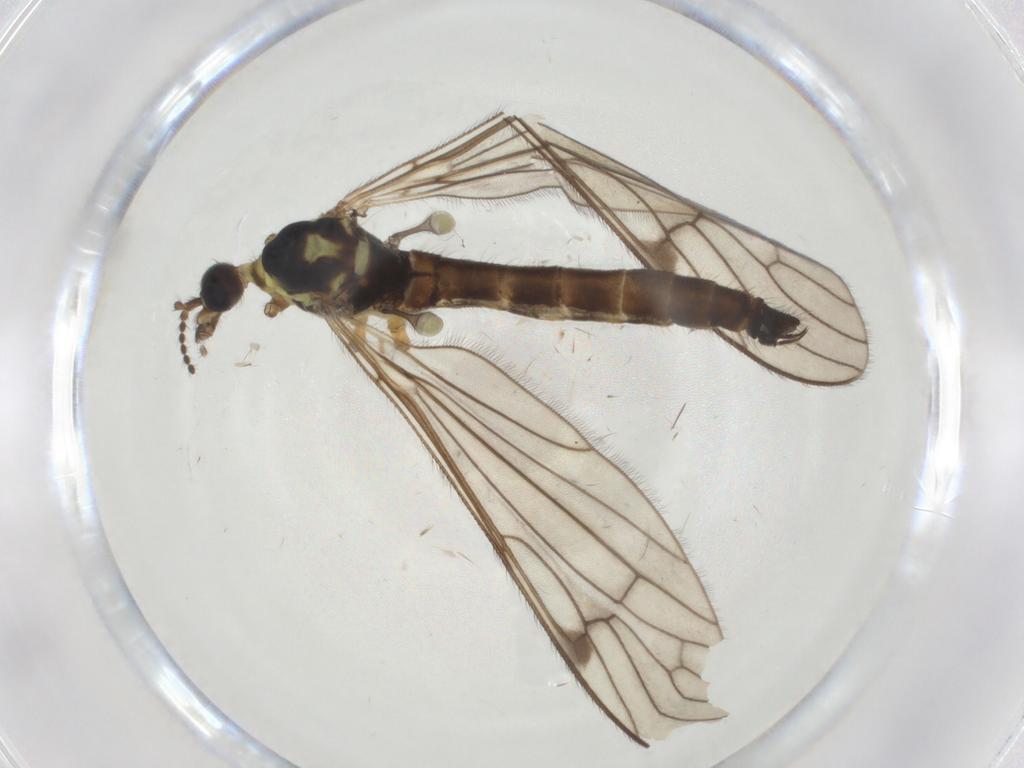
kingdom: Animalia
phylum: Arthropoda
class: Insecta
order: Diptera
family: Limoniidae
